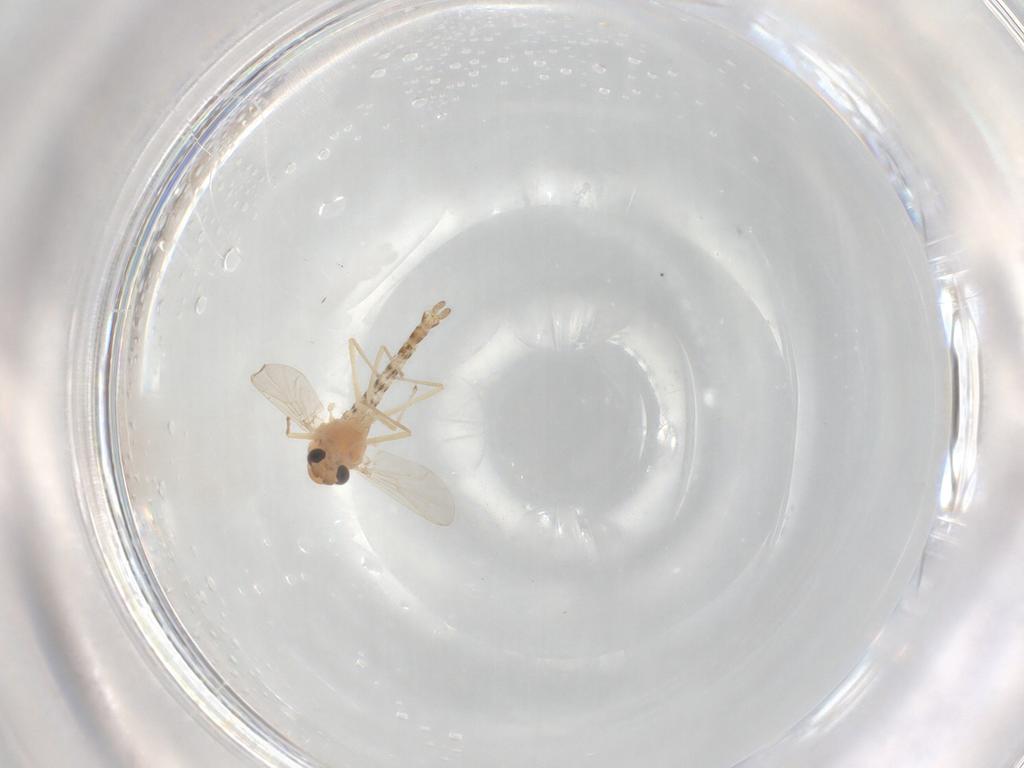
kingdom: Animalia
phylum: Arthropoda
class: Insecta
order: Diptera
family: Chironomidae
